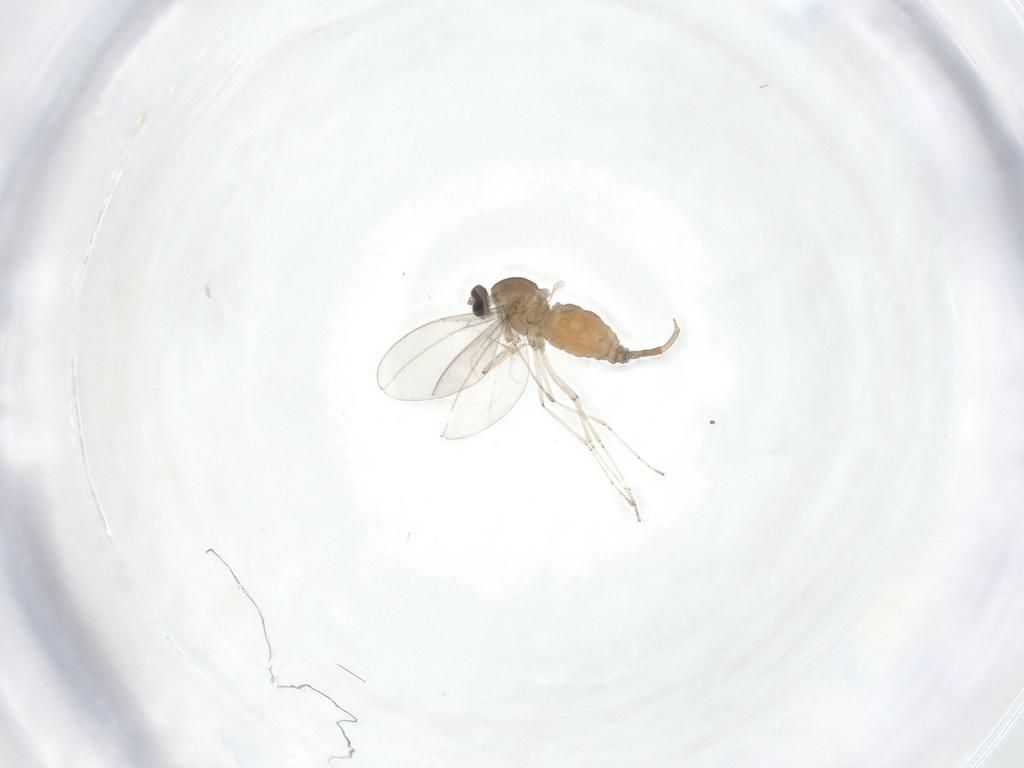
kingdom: Animalia
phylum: Arthropoda
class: Insecta
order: Diptera
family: Cecidomyiidae
